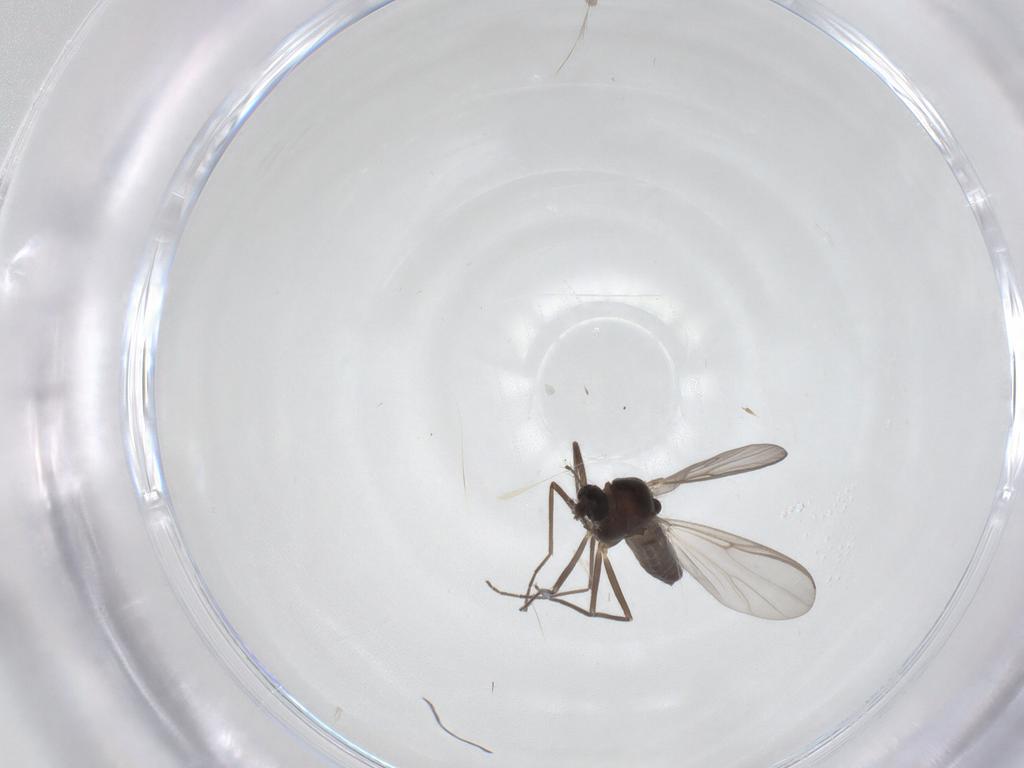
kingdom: Animalia
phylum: Arthropoda
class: Insecta
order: Diptera
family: Chironomidae
